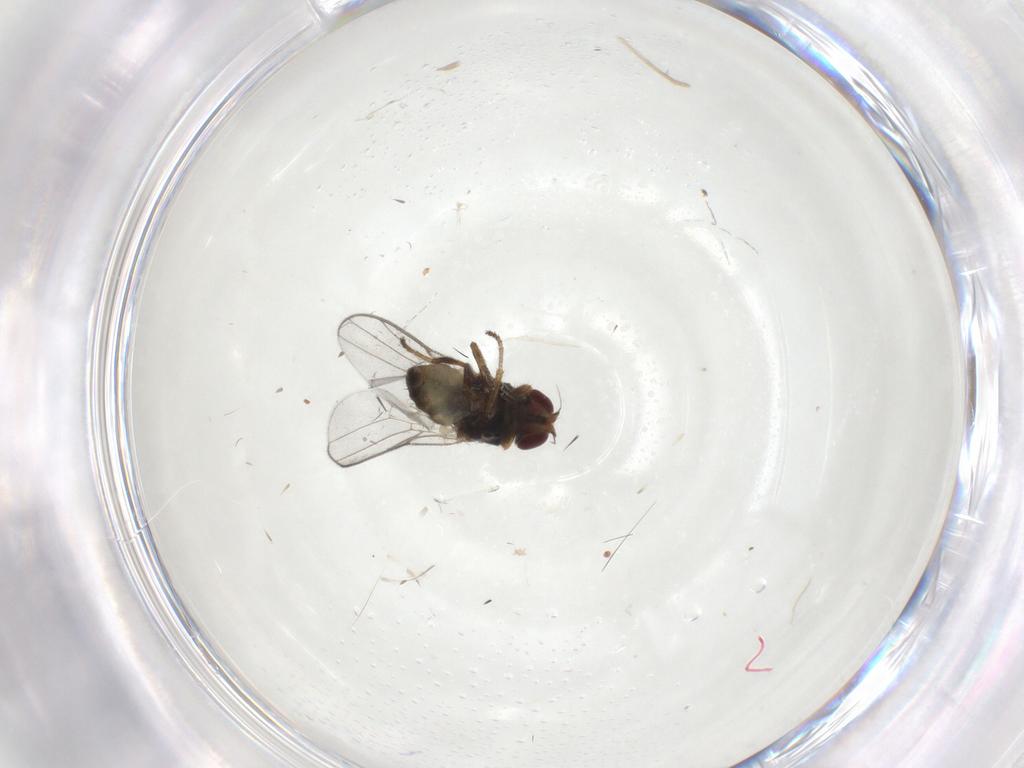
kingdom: Animalia
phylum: Arthropoda
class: Insecta
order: Diptera
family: Chloropidae
